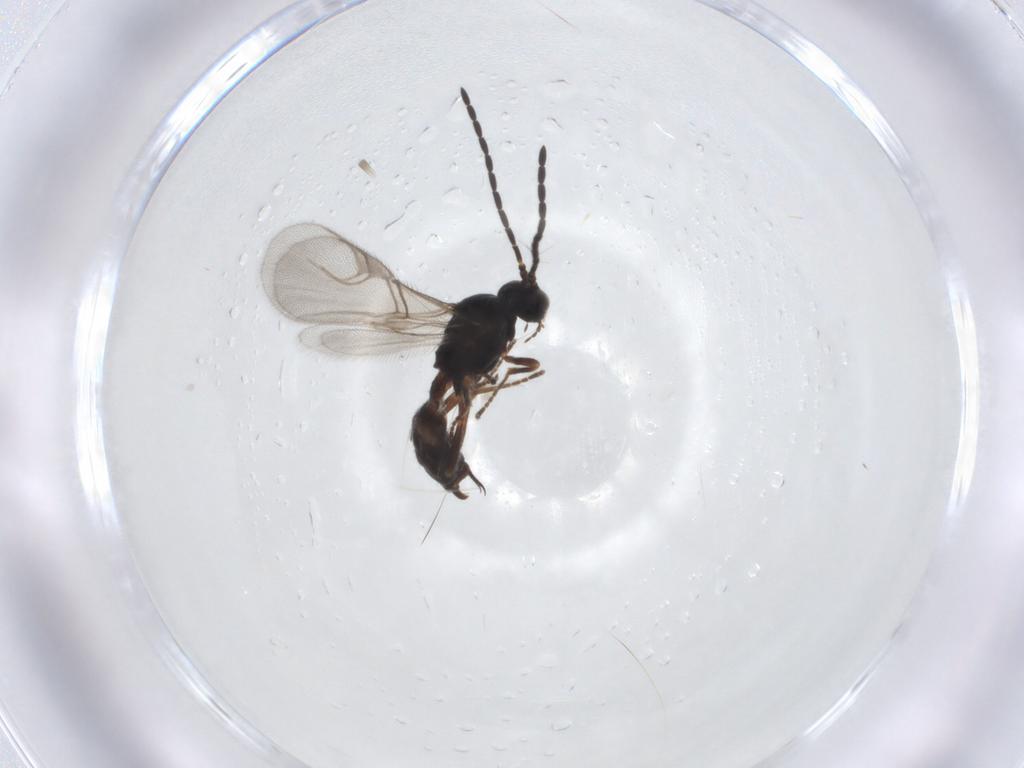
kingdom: Animalia
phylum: Arthropoda
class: Insecta
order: Hymenoptera
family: Braconidae
